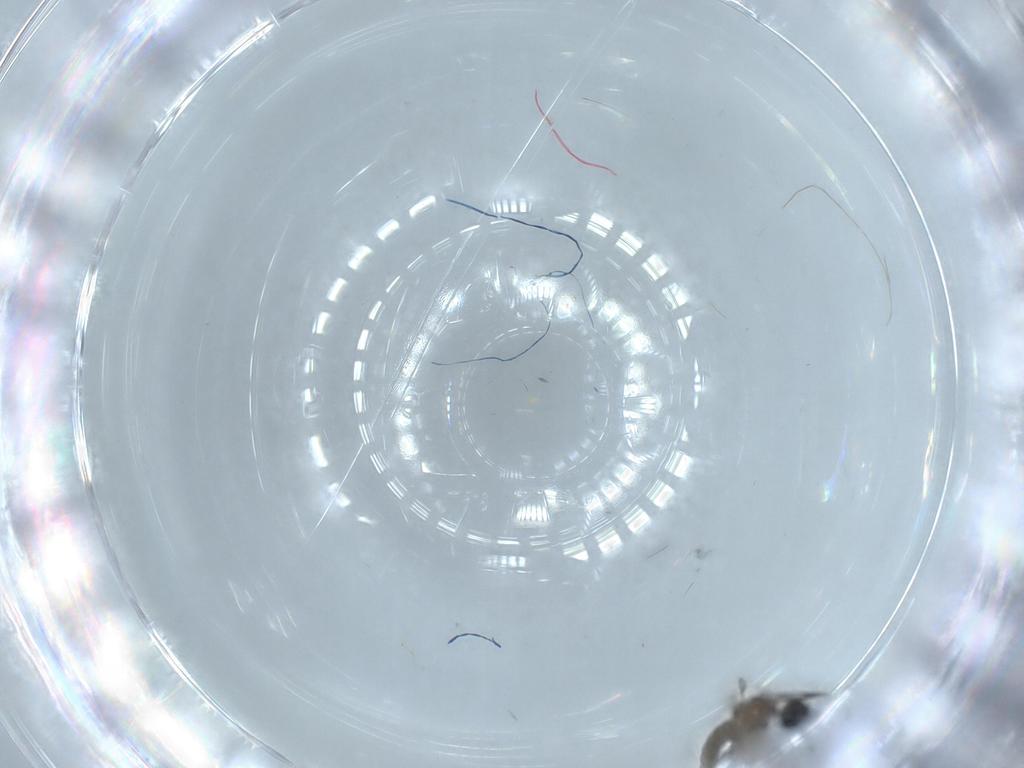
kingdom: Animalia
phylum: Arthropoda
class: Insecta
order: Diptera
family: Cecidomyiidae
